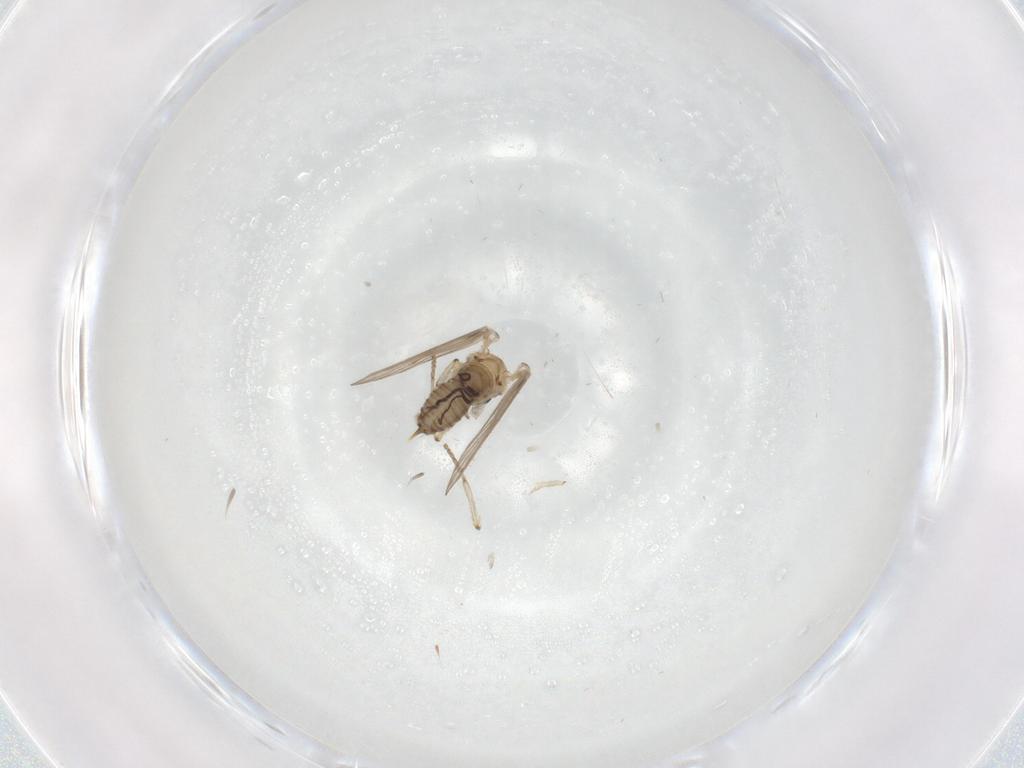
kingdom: Animalia
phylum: Arthropoda
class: Insecta
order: Diptera
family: Psychodidae
